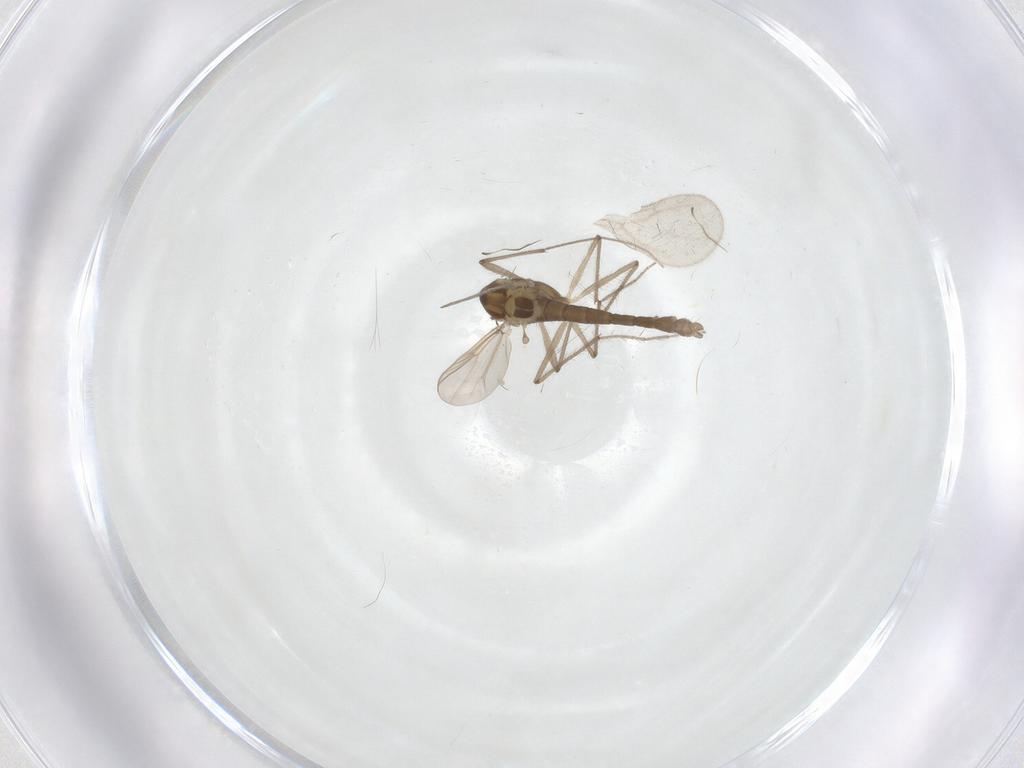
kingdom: Animalia
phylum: Arthropoda
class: Insecta
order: Diptera
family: Chironomidae
